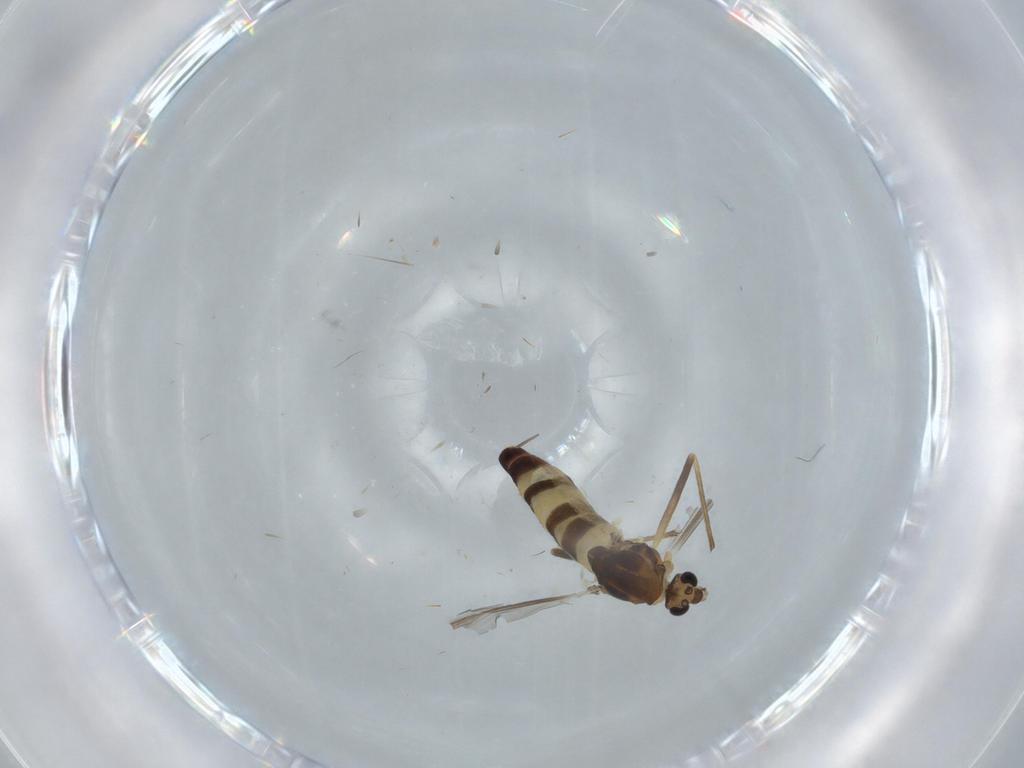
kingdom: Animalia
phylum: Arthropoda
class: Insecta
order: Diptera
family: Chironomidae
